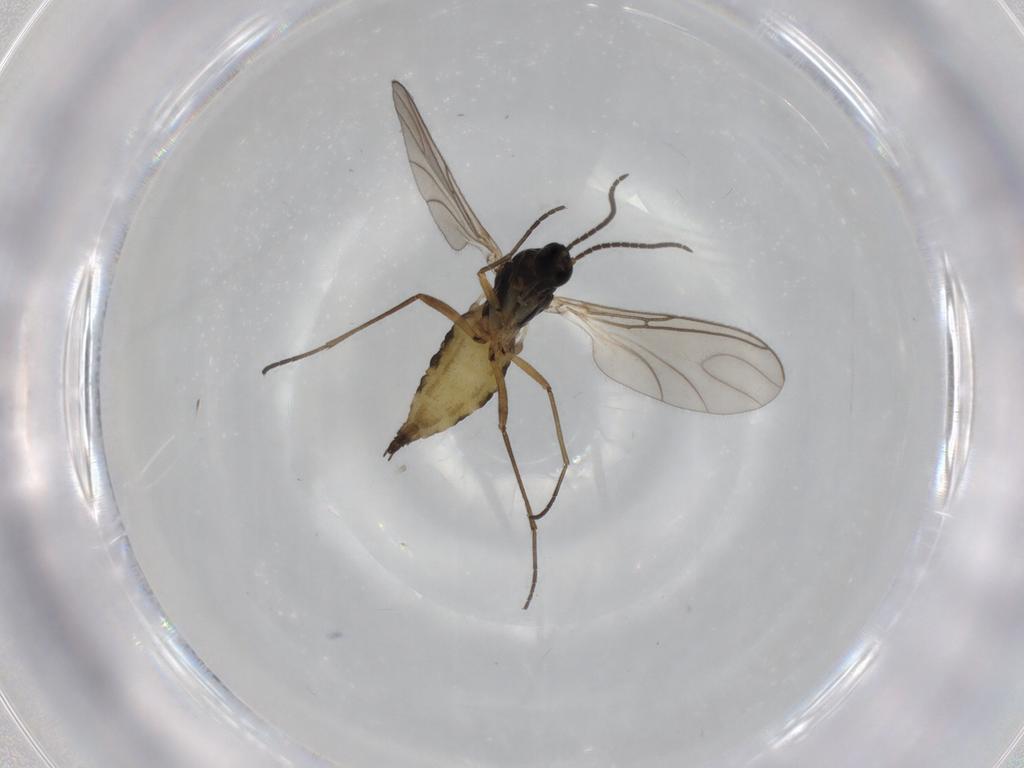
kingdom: Animalia
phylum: Arthropoda
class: Insecta
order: Diptera
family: Sciaridae
